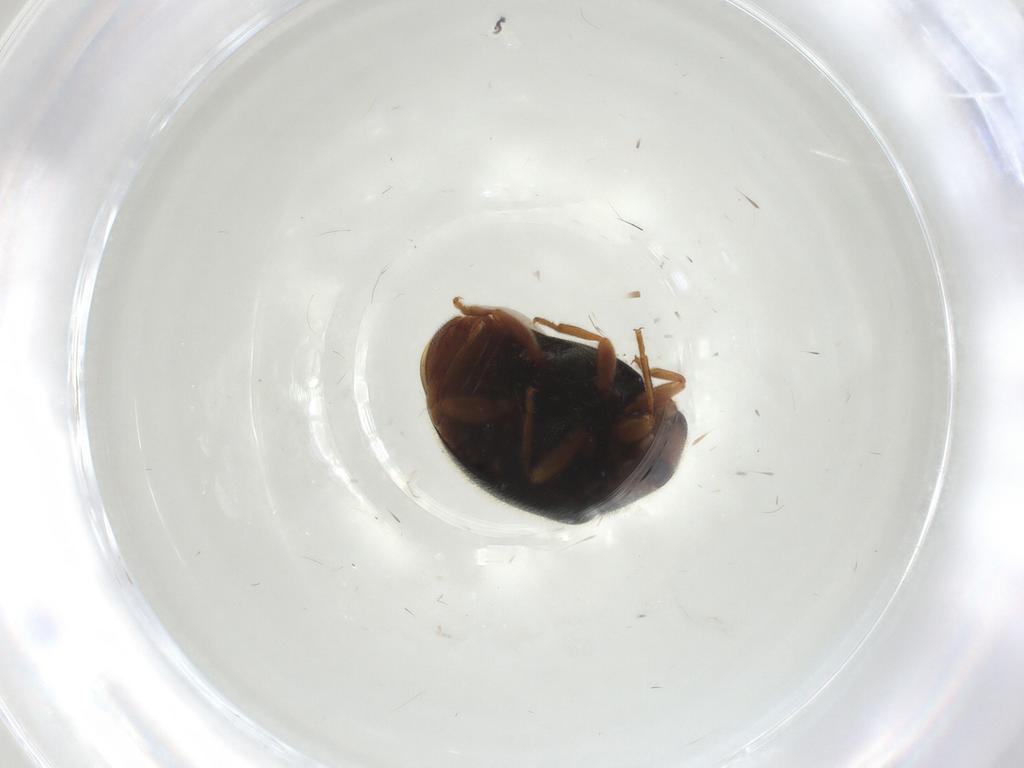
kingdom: Animalia
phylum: Arthropoda
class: Insecta
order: Coleoptera
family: Coccinellidae
